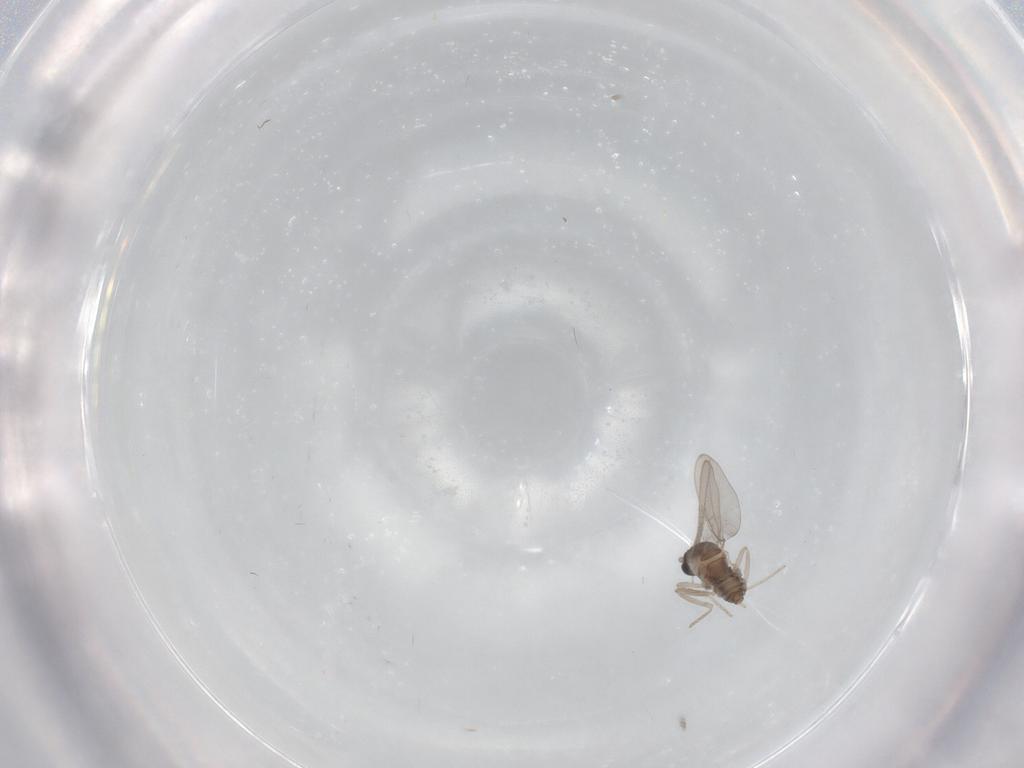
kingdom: Animalia
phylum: Arthropoda
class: Insecta
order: Diptera
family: Cecidomyiidae
